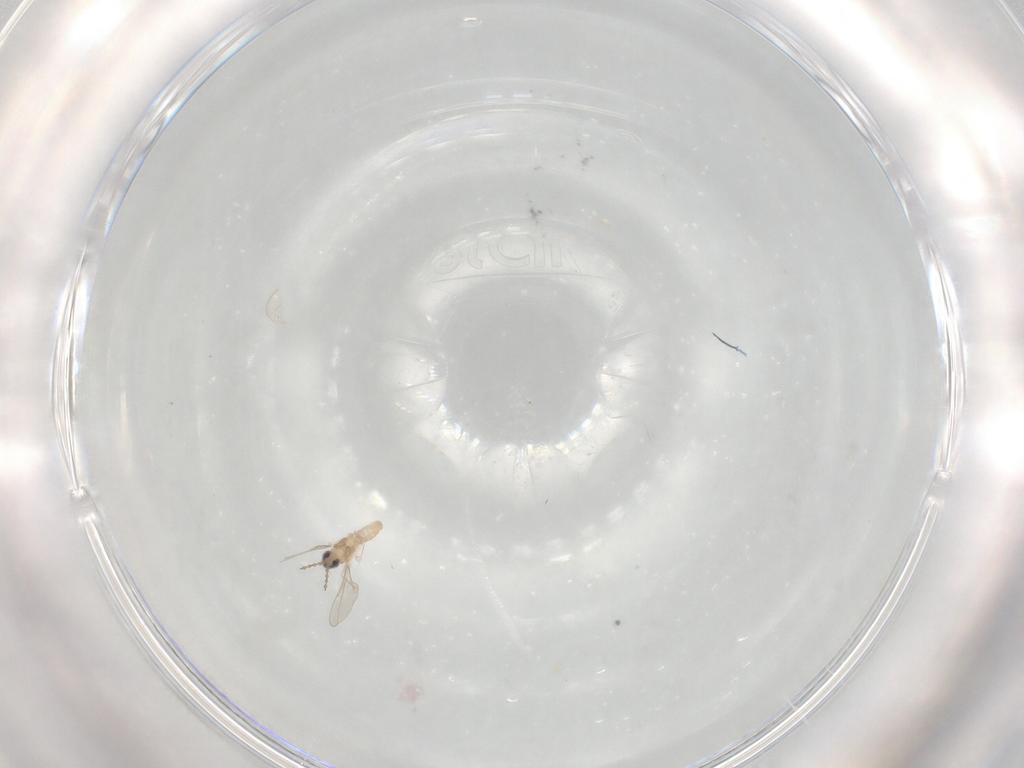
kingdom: Animalia
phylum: Arthropoda
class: Insecta
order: Diptera
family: Cecidomyiidae
